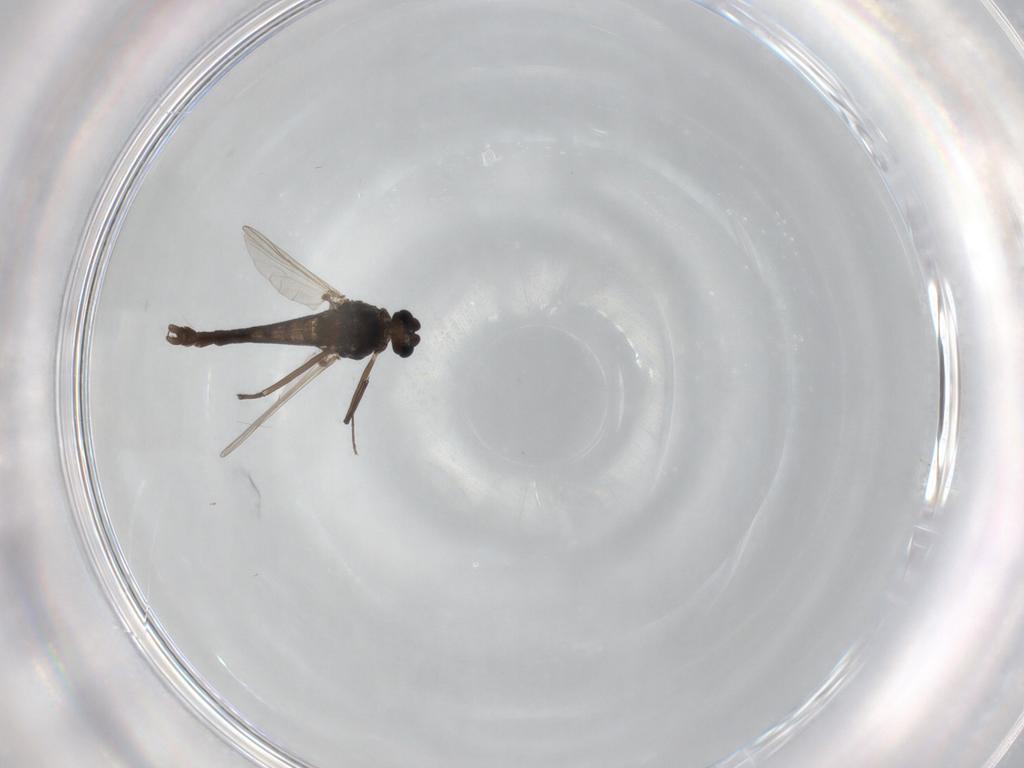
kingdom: Animalia
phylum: Arthropoda
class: Insecta
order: Diptera
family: Chironomidae
